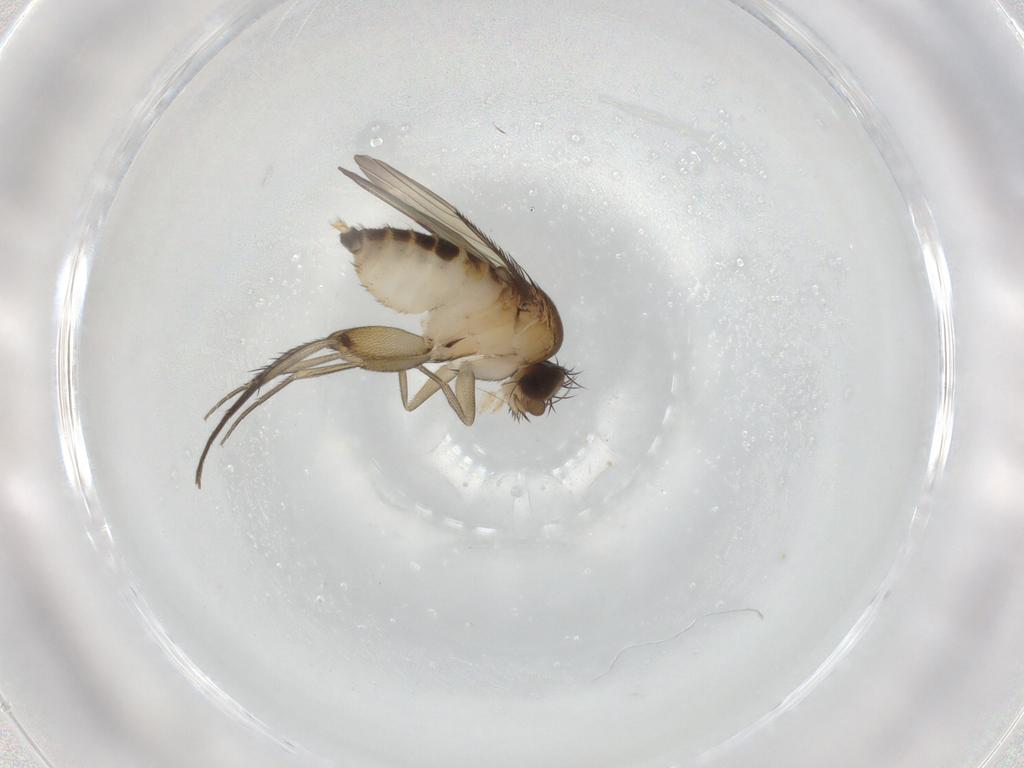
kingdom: Animalia
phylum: Arthropoda
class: Insecta
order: Diptera
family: Phoridae
